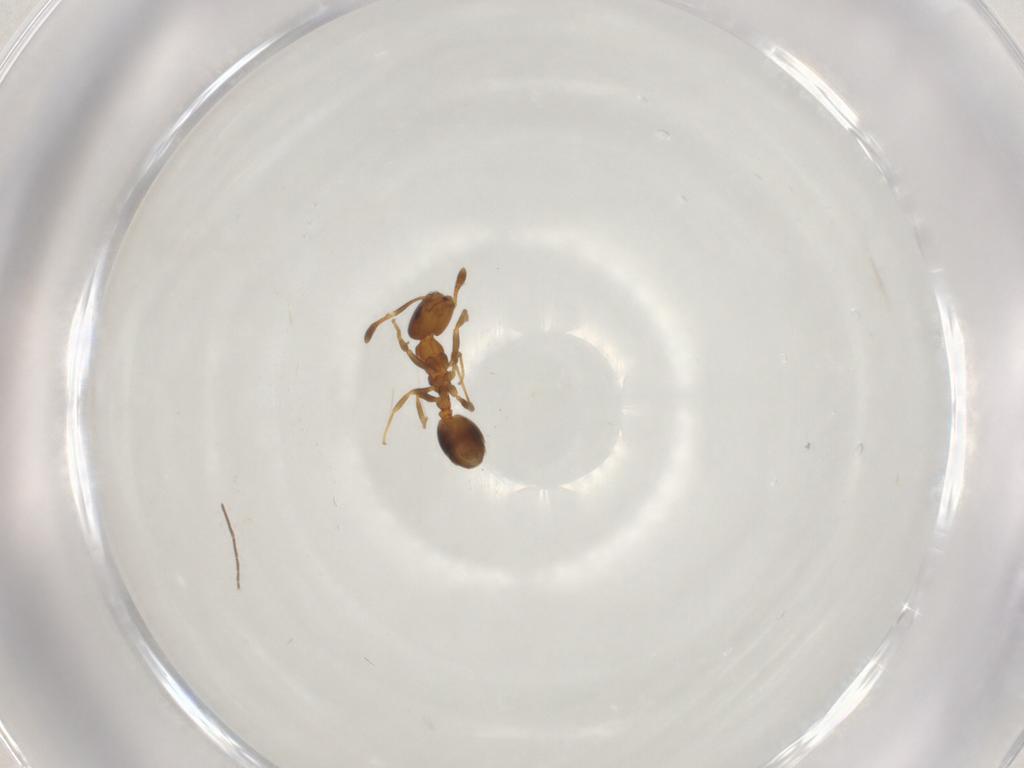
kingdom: Animalia
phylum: Arthropoda
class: Insecta
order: Hymenoptera
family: Formicidae
